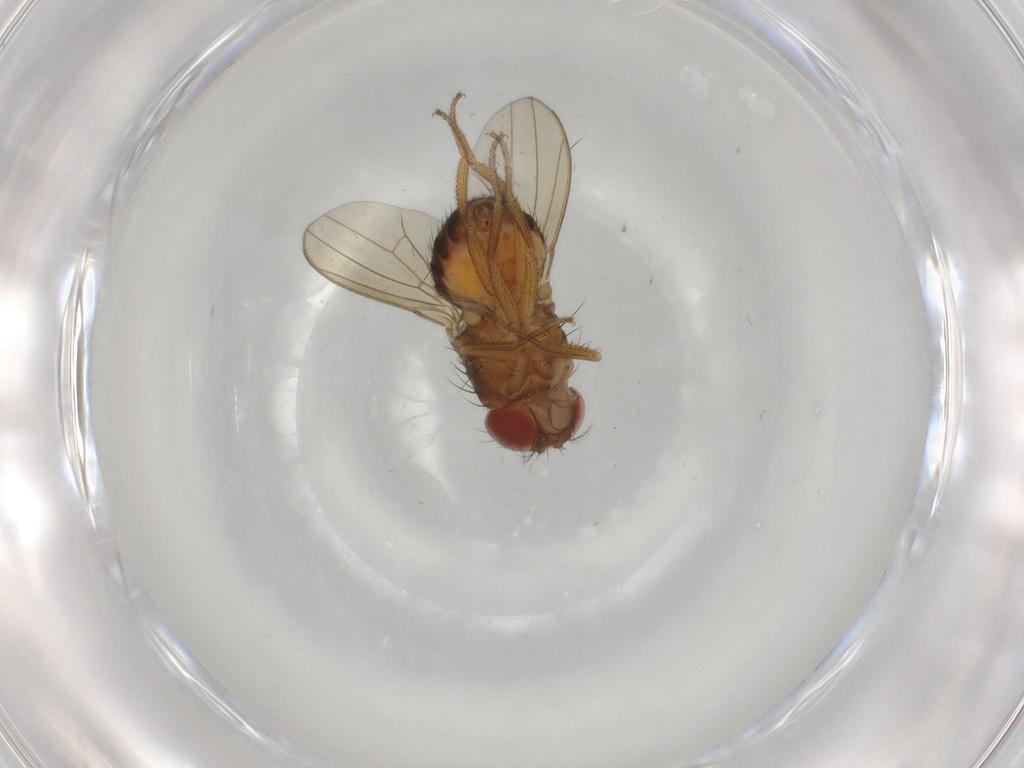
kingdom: Animalia
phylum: Arthropoda
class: Insecta
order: Diptera
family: Drosophilidae
